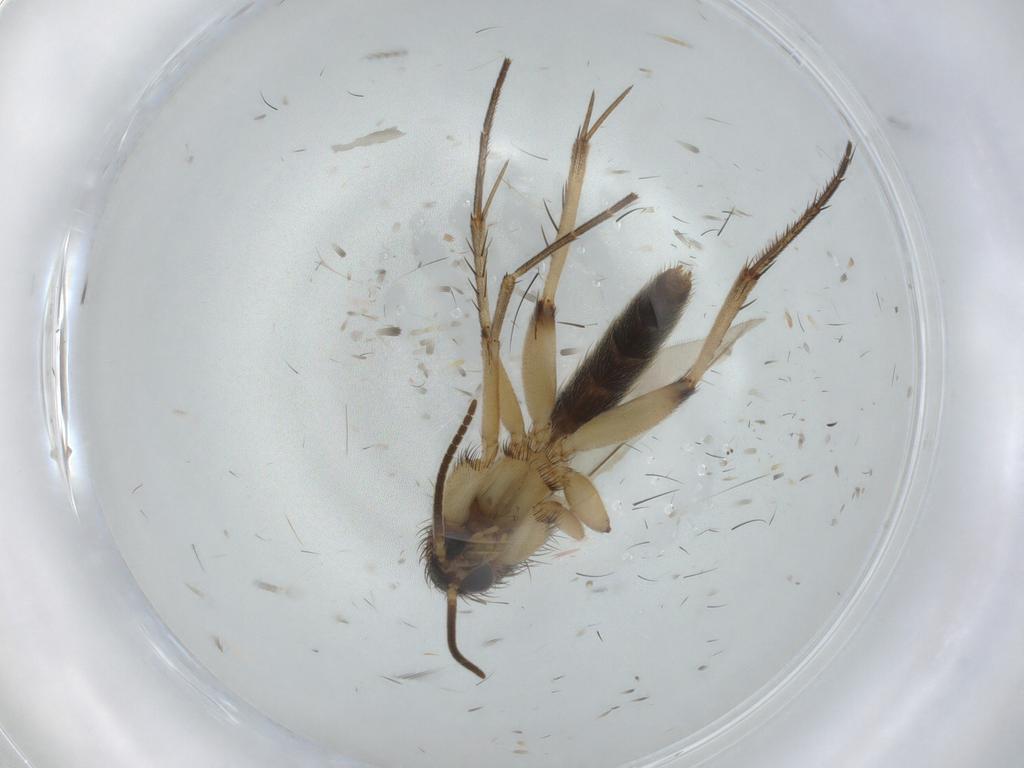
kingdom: Animalia
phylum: Arthropoda
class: Insecta
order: Diptera
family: Mycetophilidae
